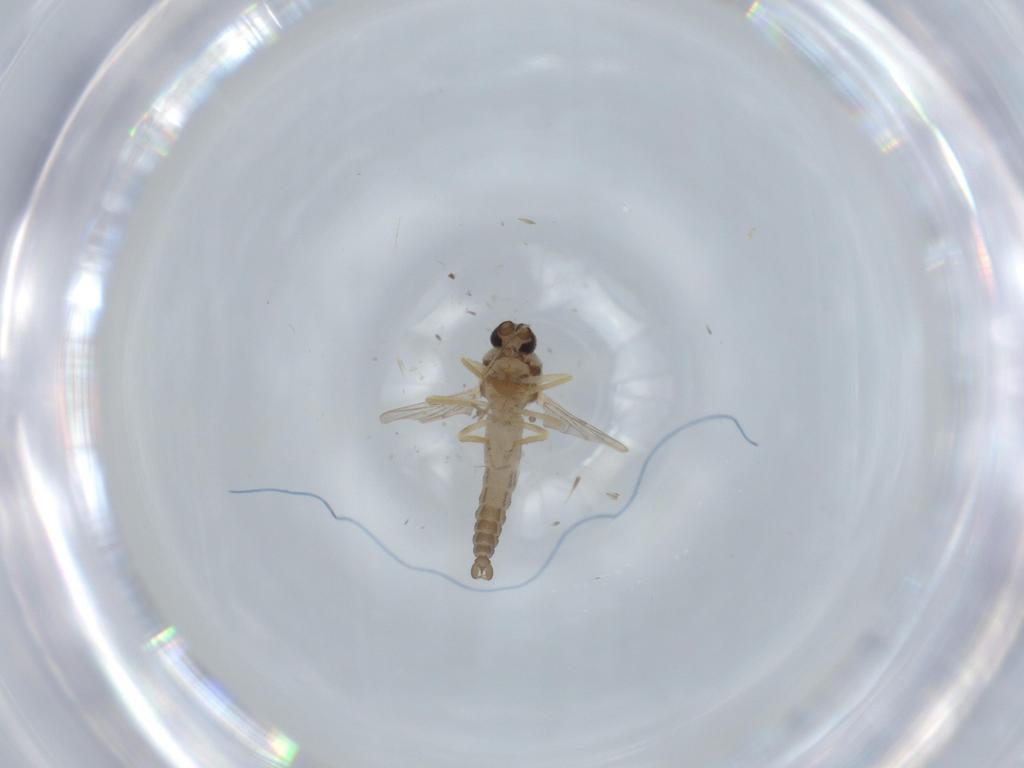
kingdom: Animalia
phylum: Arthropoda
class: Insecta
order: Diptera
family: Ceratopogonidae
